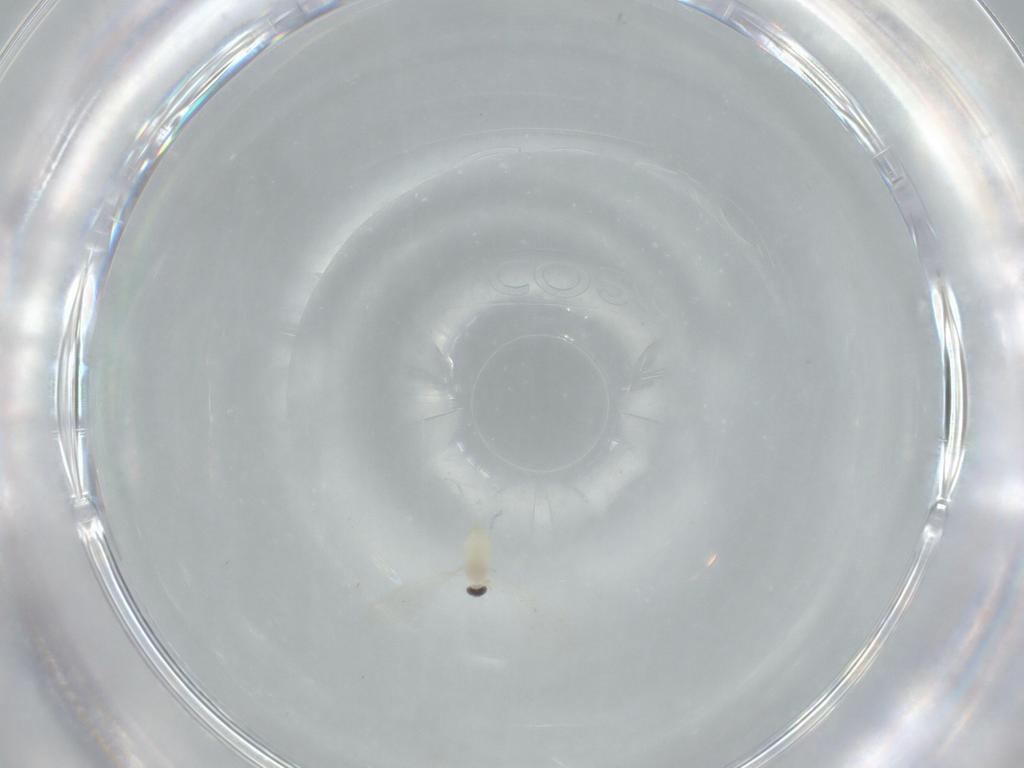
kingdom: Animalia
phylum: Arthropoda
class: Insecta
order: Diptera
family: Cecidomyiidae
